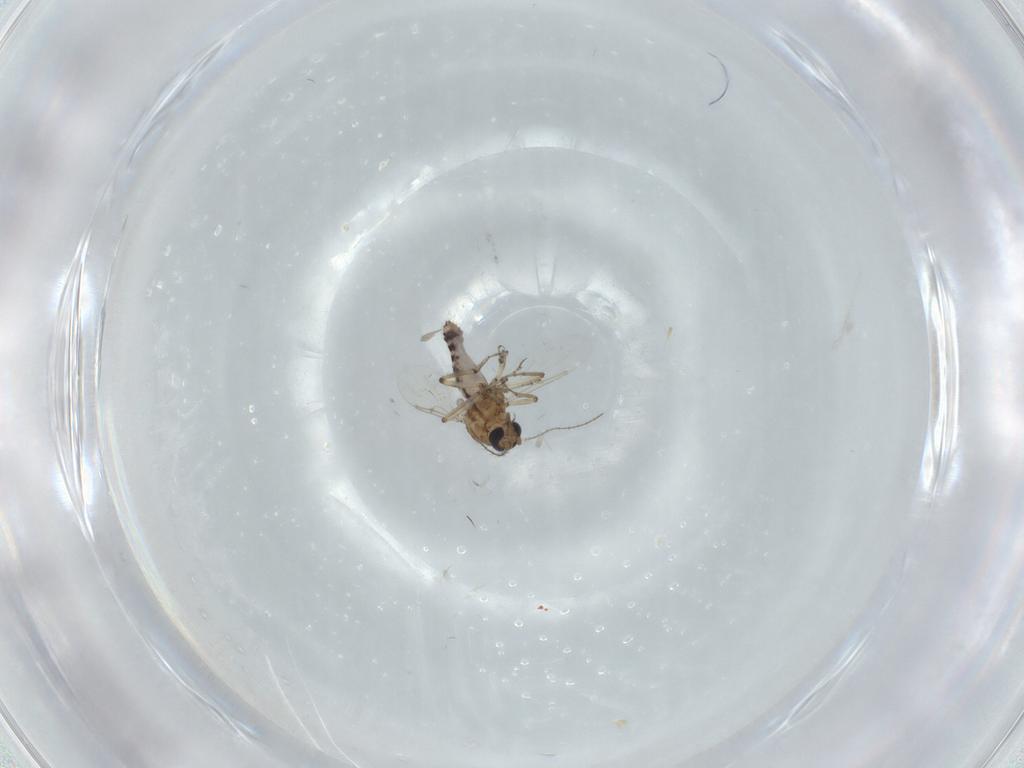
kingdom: Animalia
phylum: Arthropoda
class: Insecta
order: Diptera
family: Ceratopogonidae
